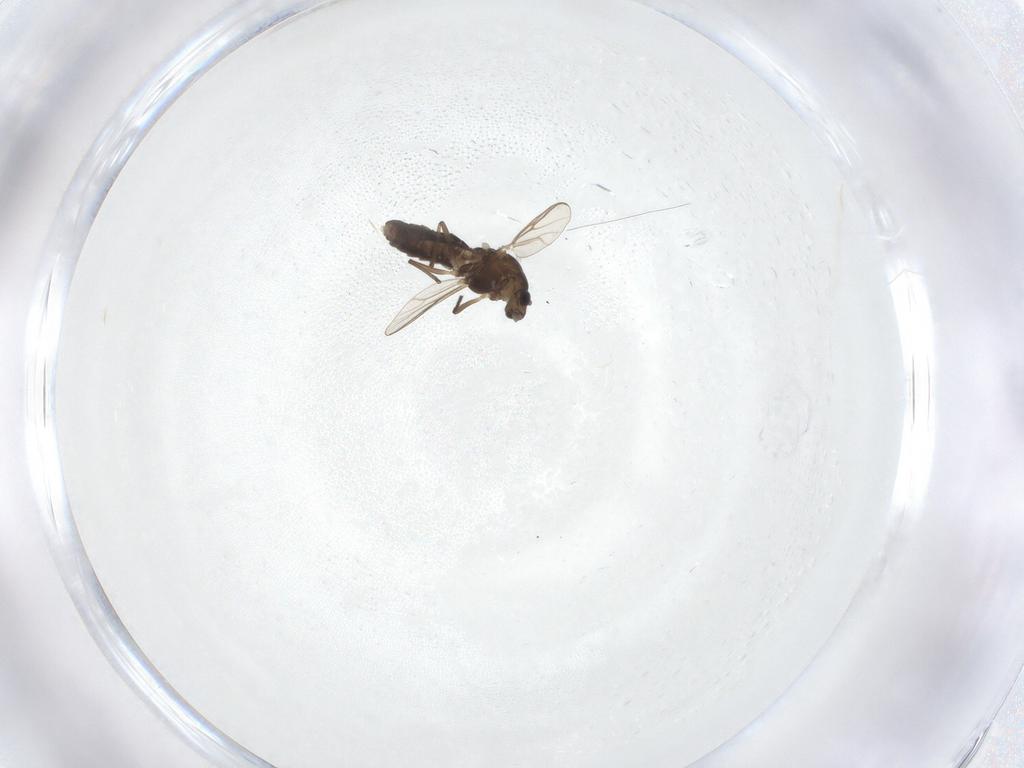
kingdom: Animalia
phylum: Arthropoda
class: Insecta
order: Diptera
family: Chironomidae
